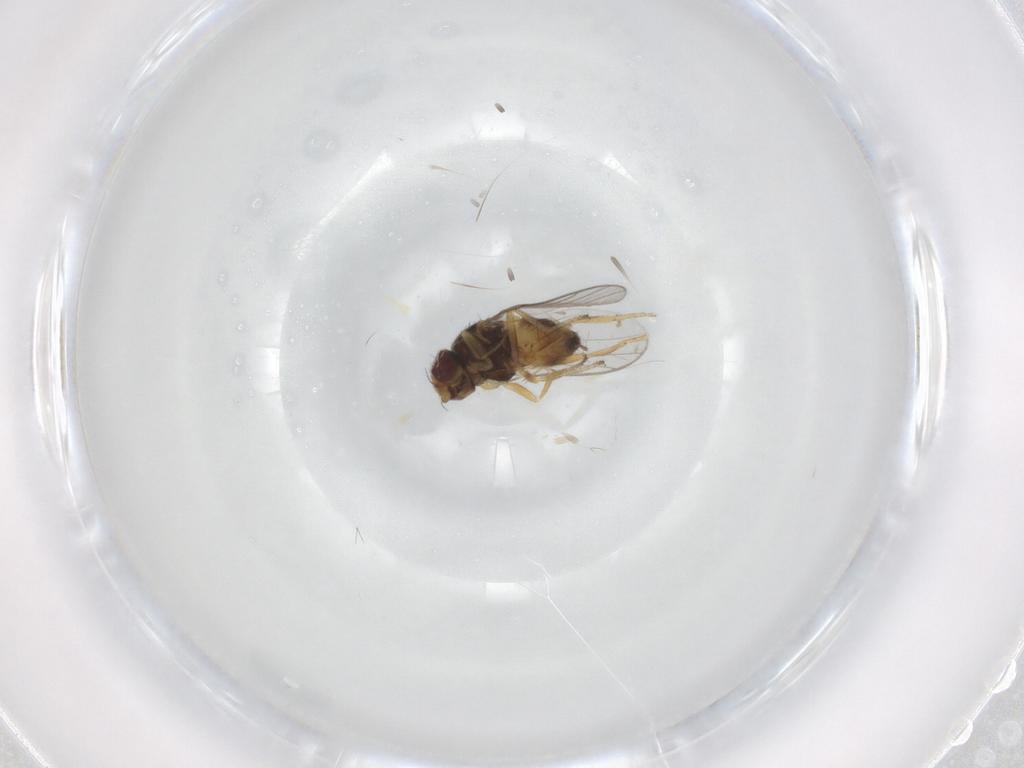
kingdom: Animalia
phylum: Arthropoda
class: Insecta
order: Diptera
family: Chloropidae
